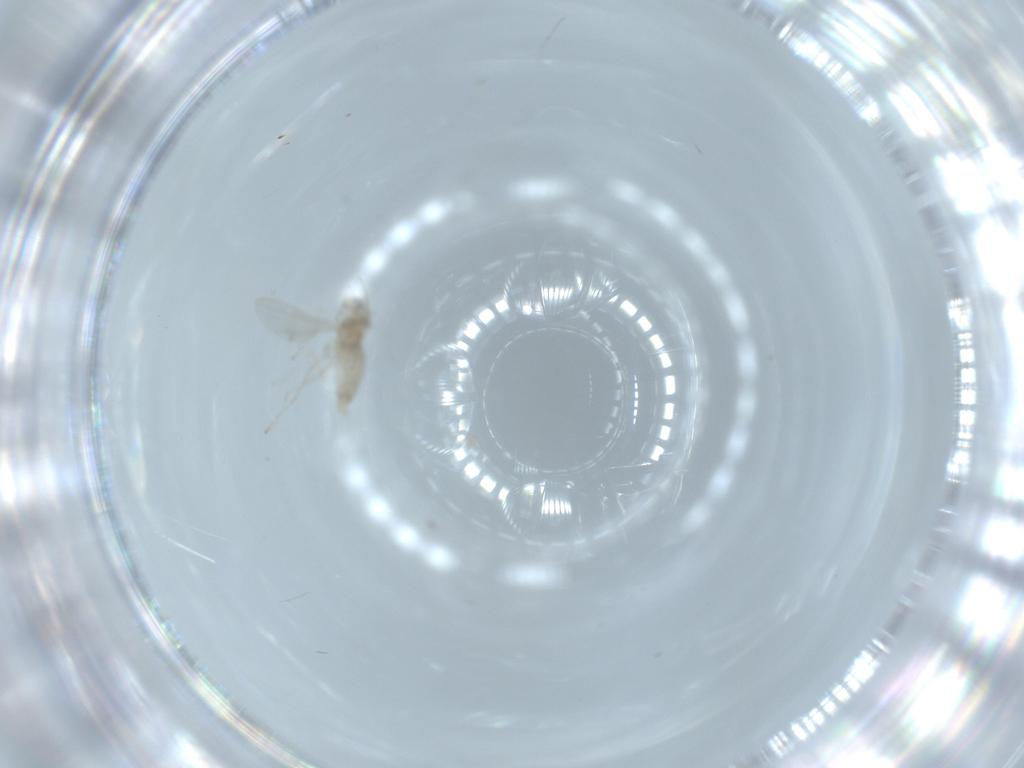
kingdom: Animalia
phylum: Arthropoda
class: Insecta
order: Diptera
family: Cecidomyiidae
